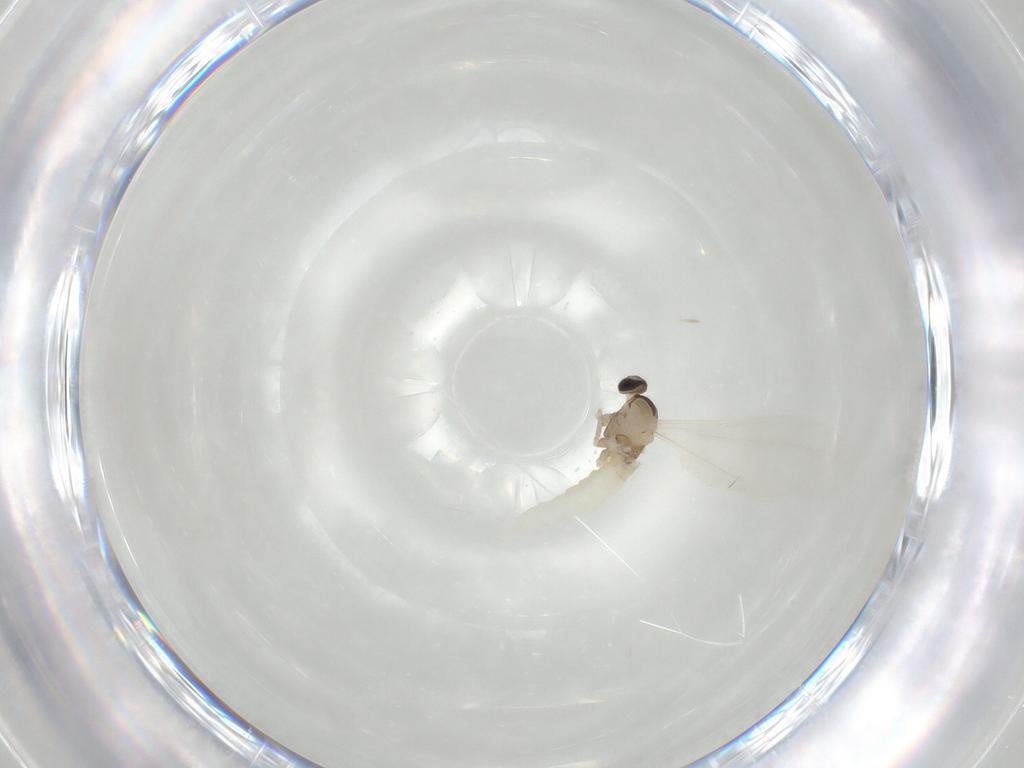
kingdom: Animalia
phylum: Arthropoda
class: Insecta
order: Diptera
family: Cecidomyiidae
